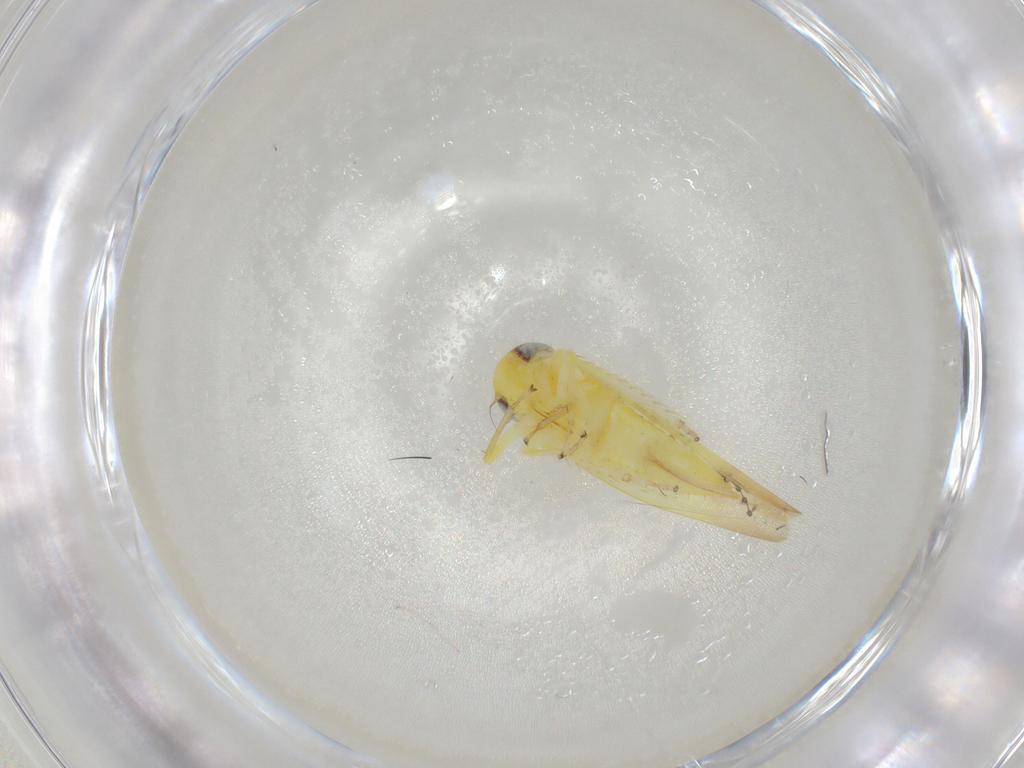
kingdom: Animalia
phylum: Arthropoda
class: Insecta
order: Hemiptera
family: Cicadellidae
